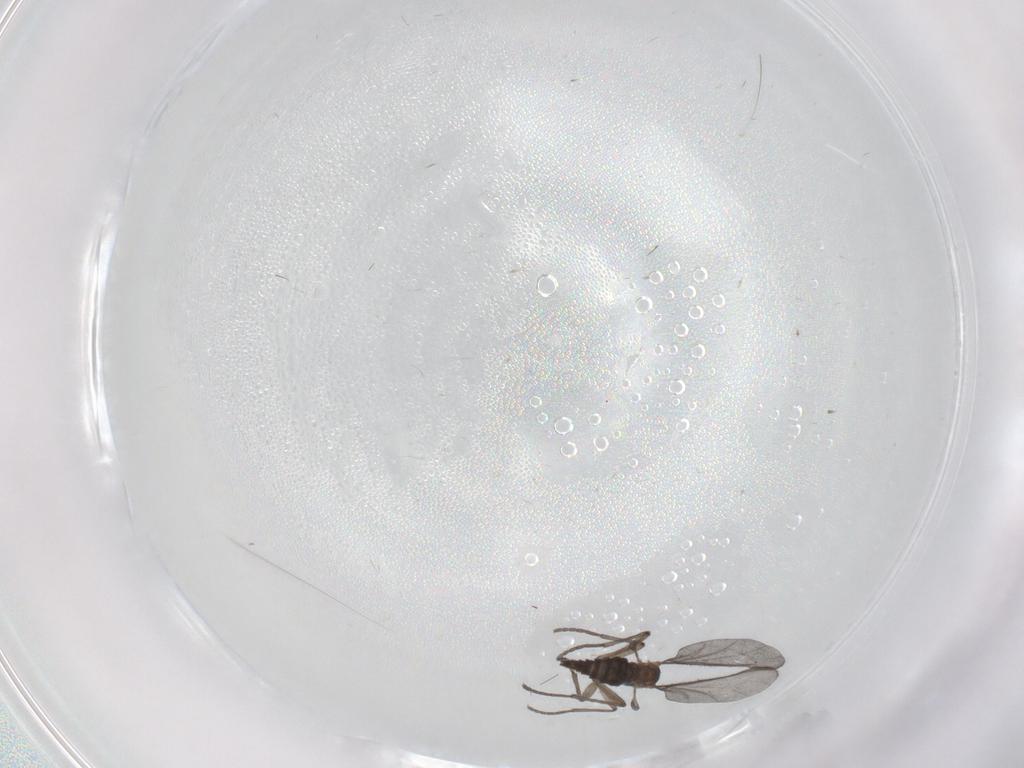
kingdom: Animalia
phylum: Arthropoda
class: Insecta
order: Diptera
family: Sciaridae
